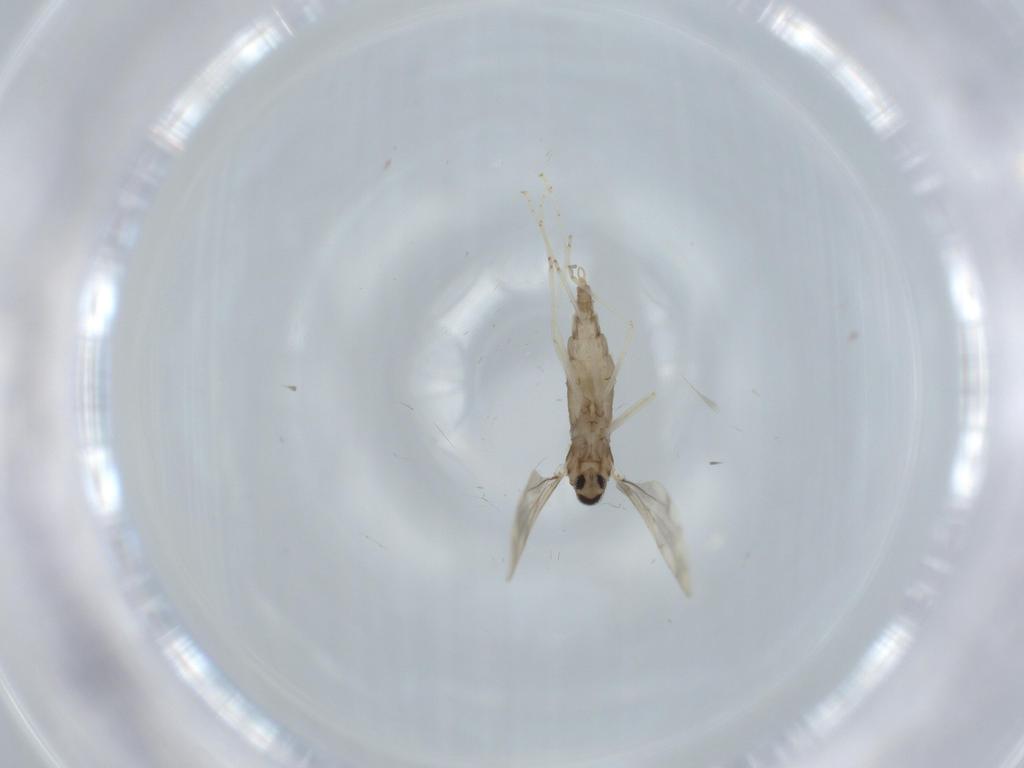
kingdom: Animalia
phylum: Arthropoda
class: Insecta
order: Diptera
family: Cecidomyiidae
